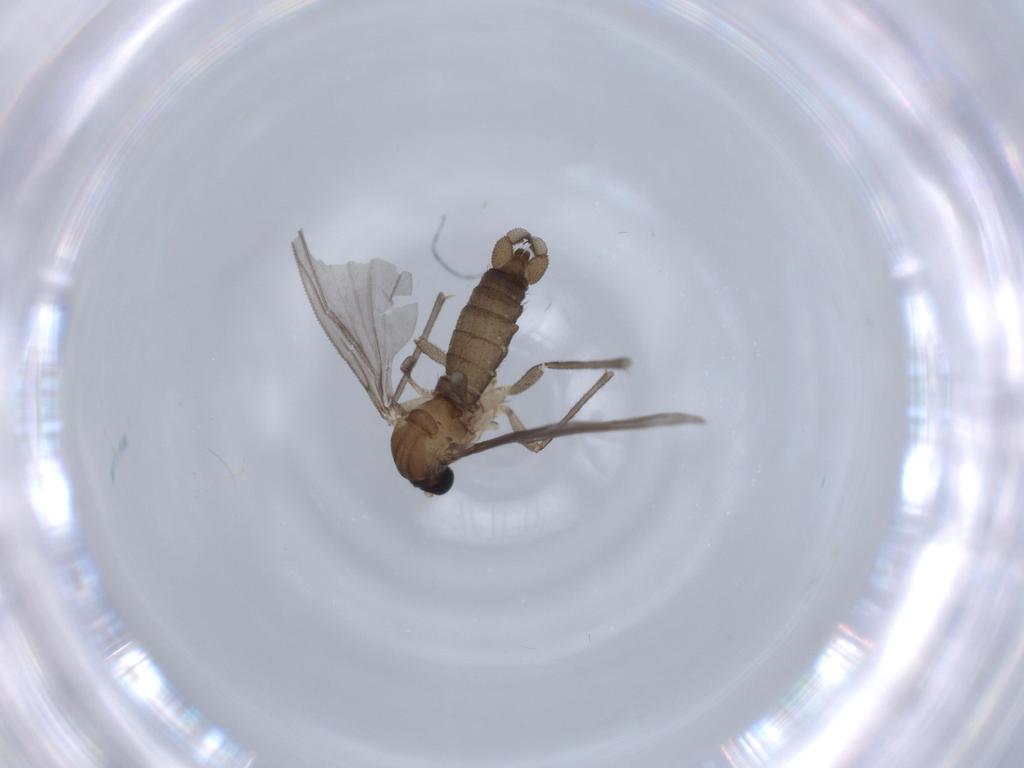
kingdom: Animalia
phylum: Arthropoda
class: Insecta
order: Diptera
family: Sciaridae
